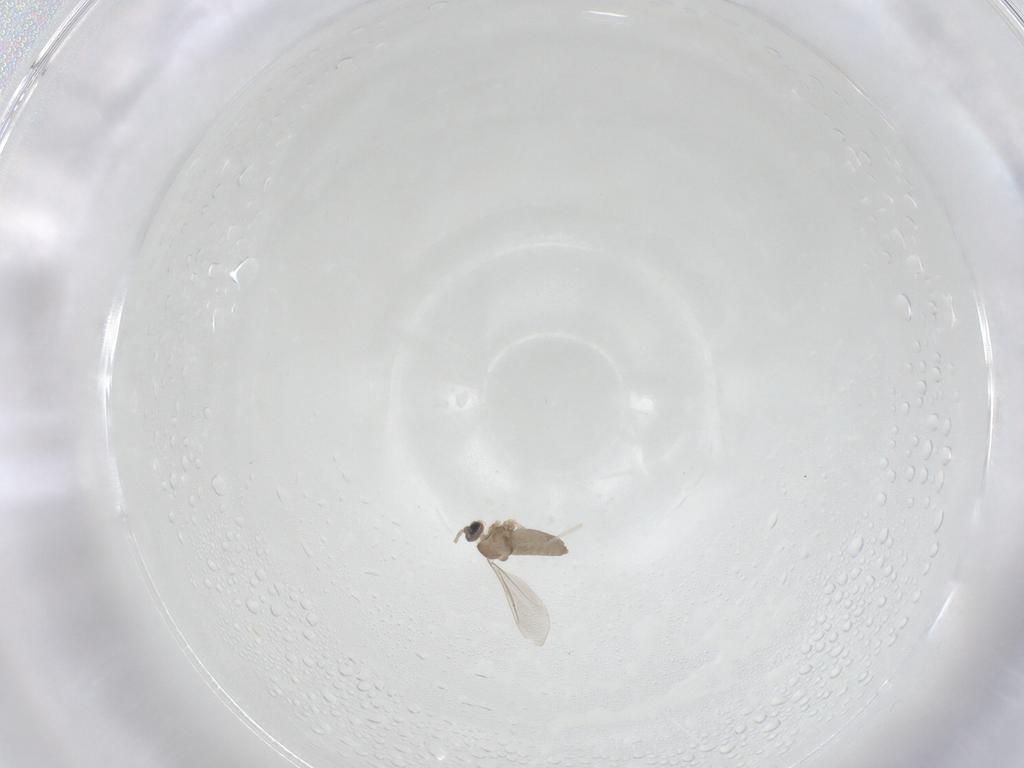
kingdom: Animalia
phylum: Arthropoda
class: Insecta
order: Diptera
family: Cecidomyiidae
